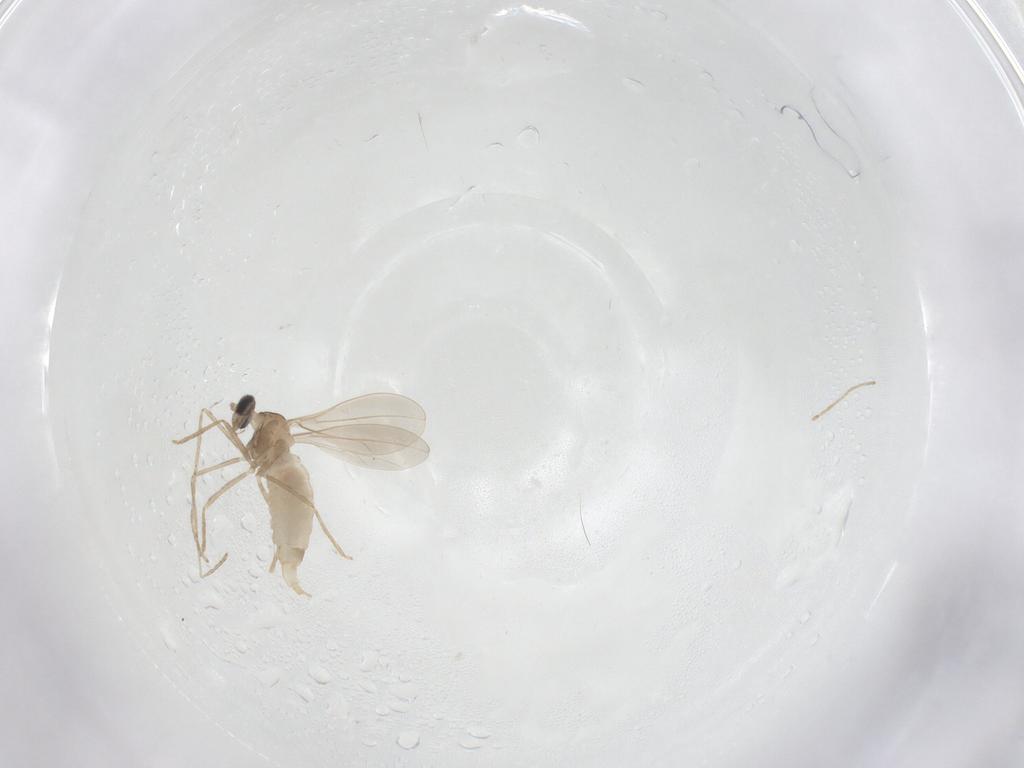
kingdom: Animalia
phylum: Arthropoda
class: Insecta
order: Diptera
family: Cecidomyiidae
